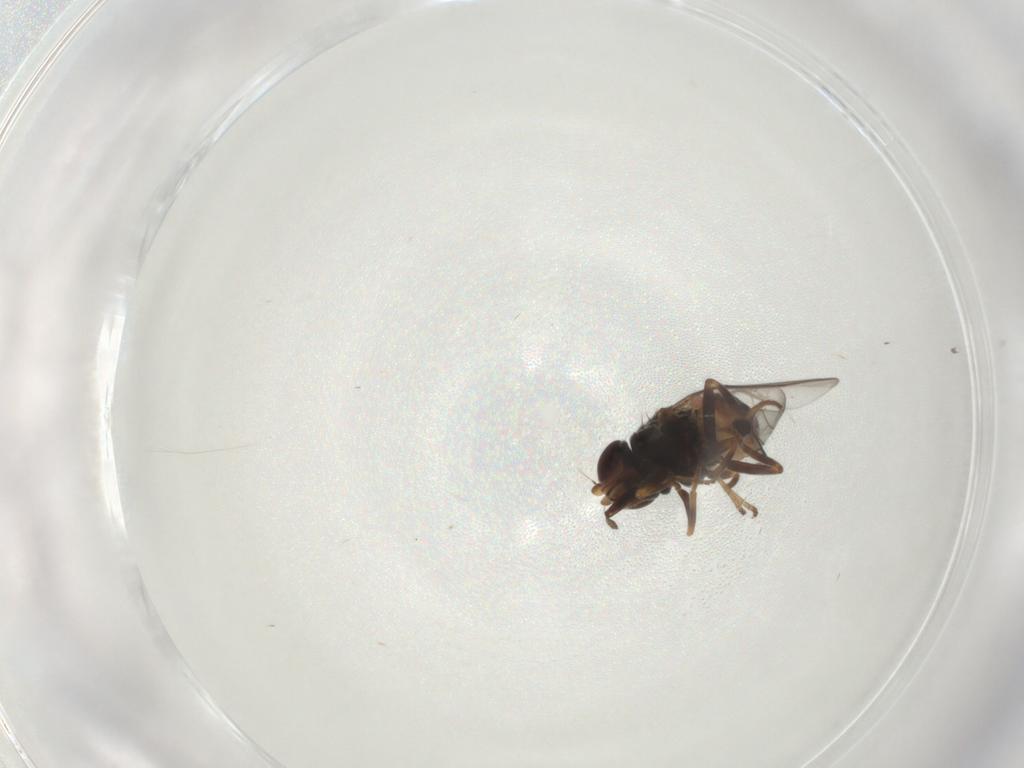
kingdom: Animalia
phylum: Arthropoda
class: Insecta
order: Diptera
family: Chloropidae
